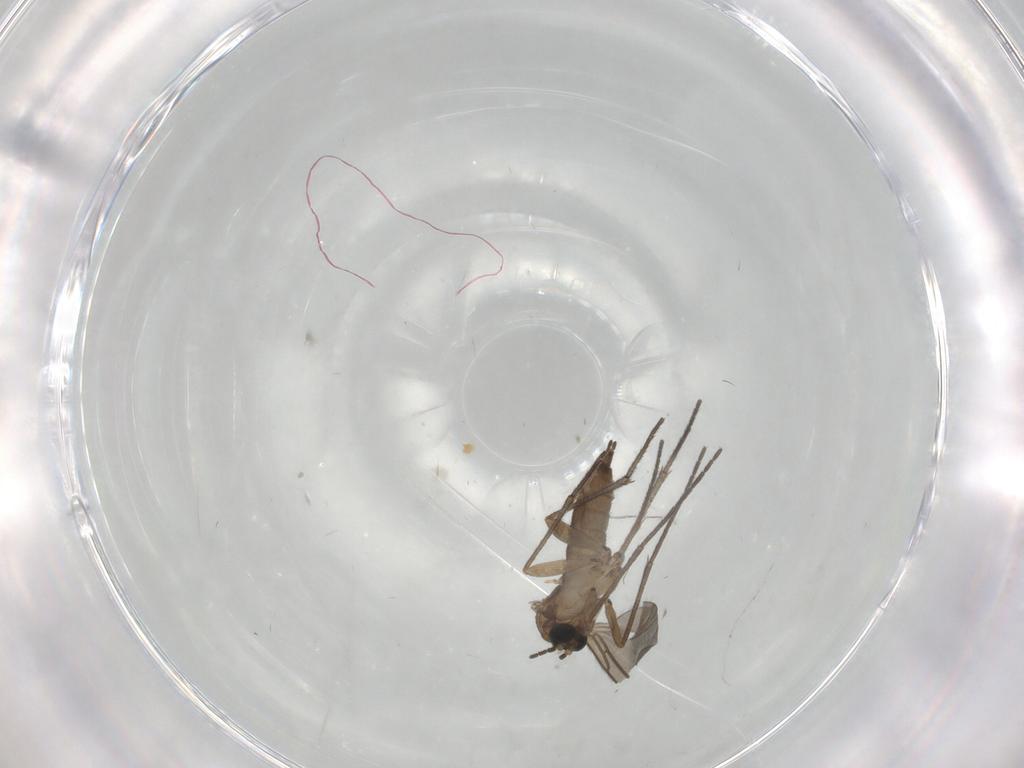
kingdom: Animalia
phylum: Arthropoda
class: Insecta
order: Diptera
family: Sciaridae
